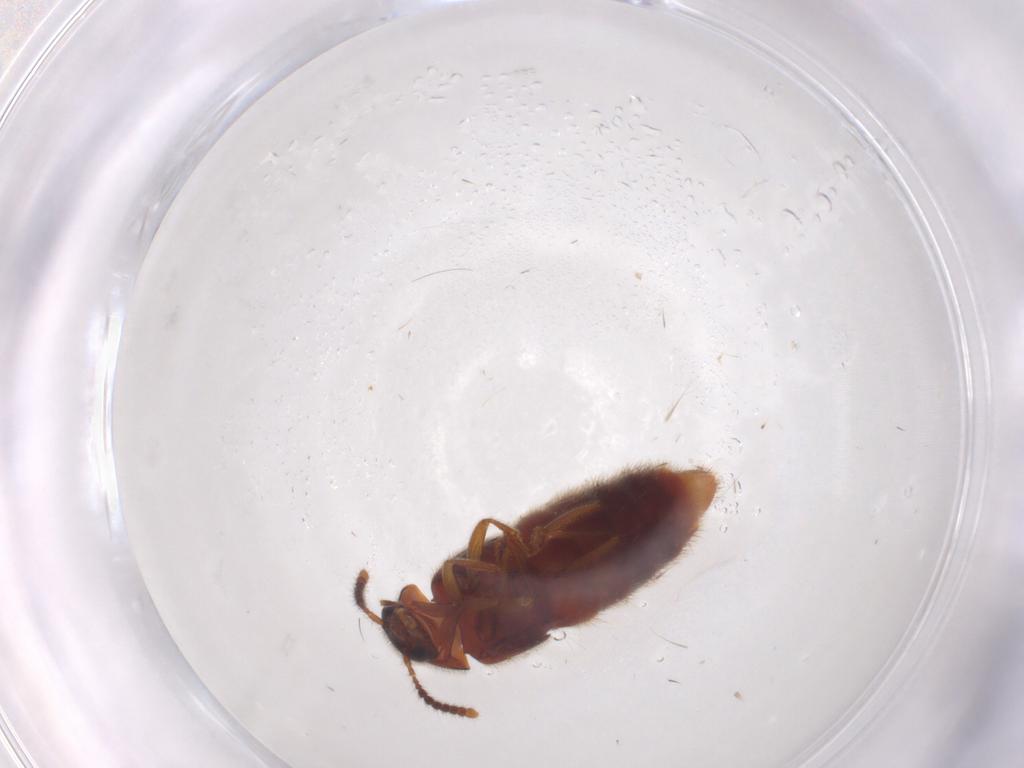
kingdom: Animalia
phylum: Arthropoda
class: Insecta
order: Coleoptera
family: Staphylinidae
